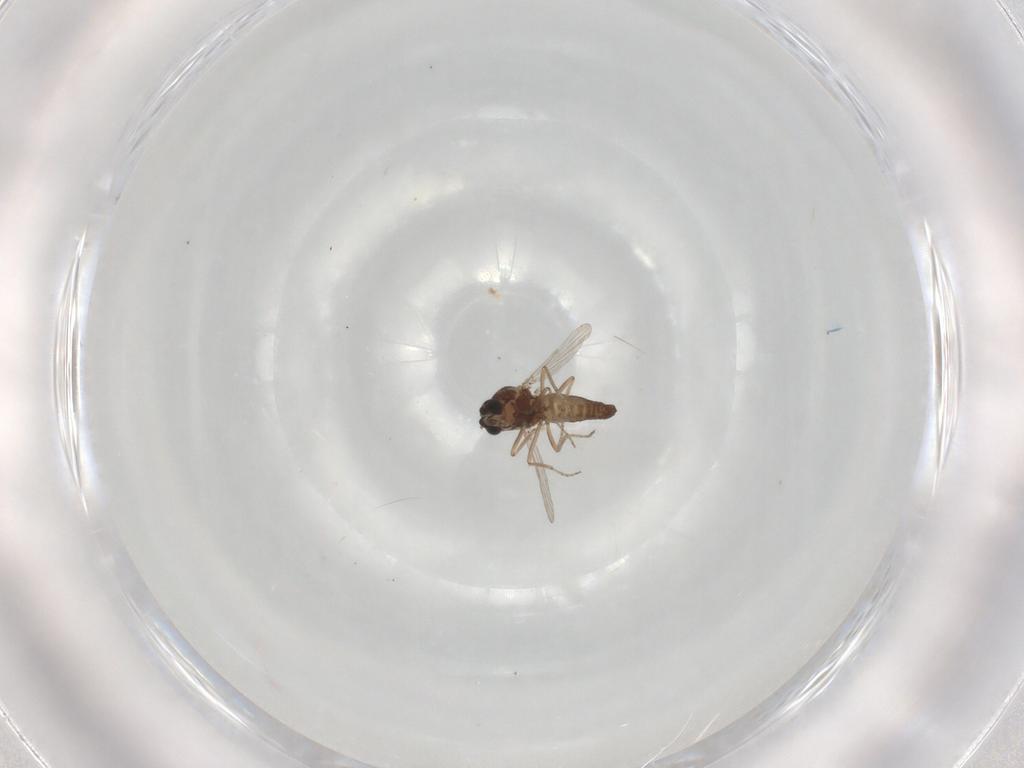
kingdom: Animalia
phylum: Arthropoda
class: Insecta
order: Diptera
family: Ceratopogonidae
